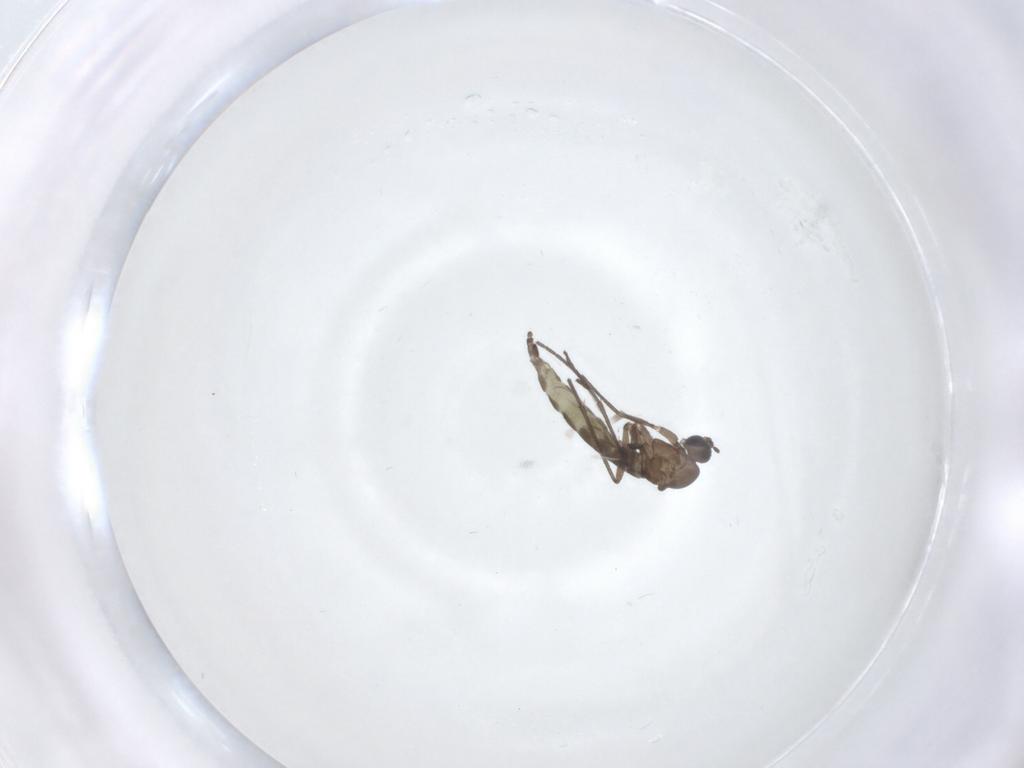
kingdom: Animalia
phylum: Arthropoda
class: Insecta
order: Diptera
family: Sciaridae
